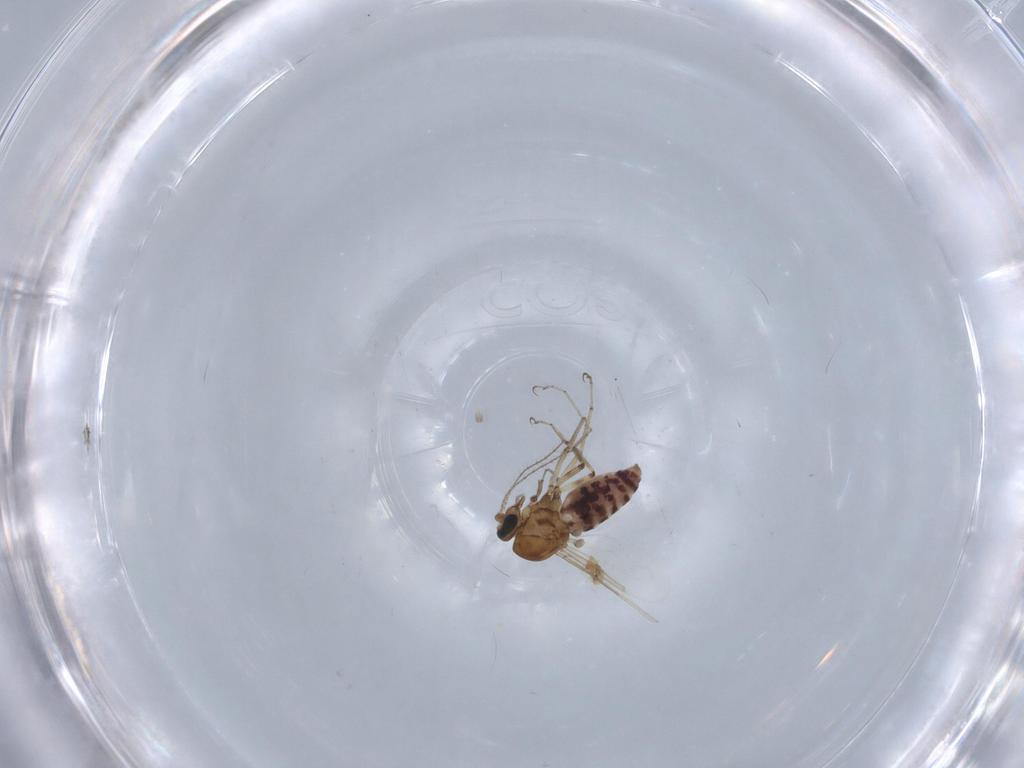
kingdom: Animalia
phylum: Arthropoda
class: Insecta
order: Diptera
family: Ceratopogonidae
